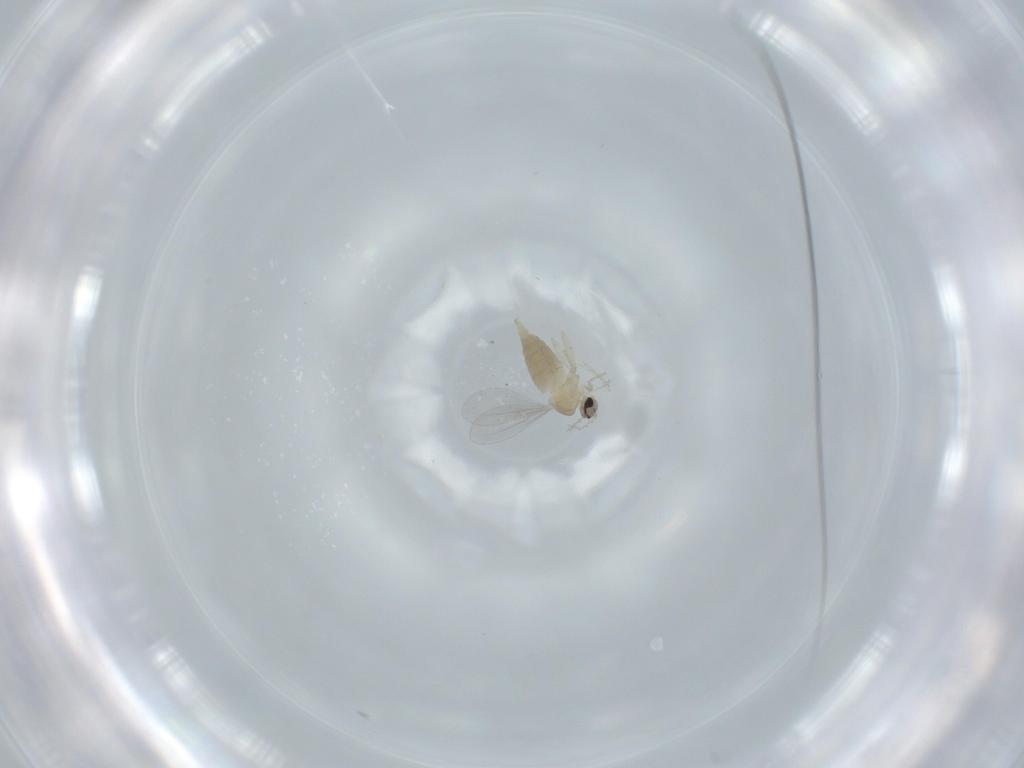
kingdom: Animalia
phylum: Arthropoda
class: Insecta
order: Diptera
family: Cecidomyiidae
